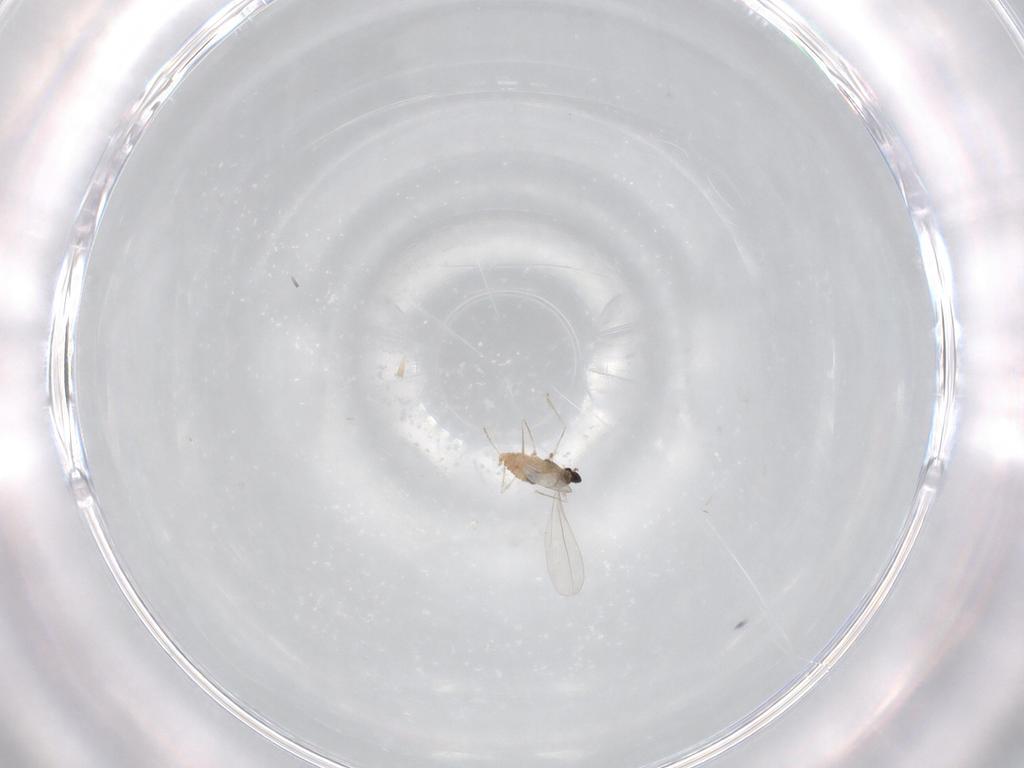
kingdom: Animalia
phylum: Arthropoda
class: Insecta
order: Diptera
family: Cecidomyiidae
